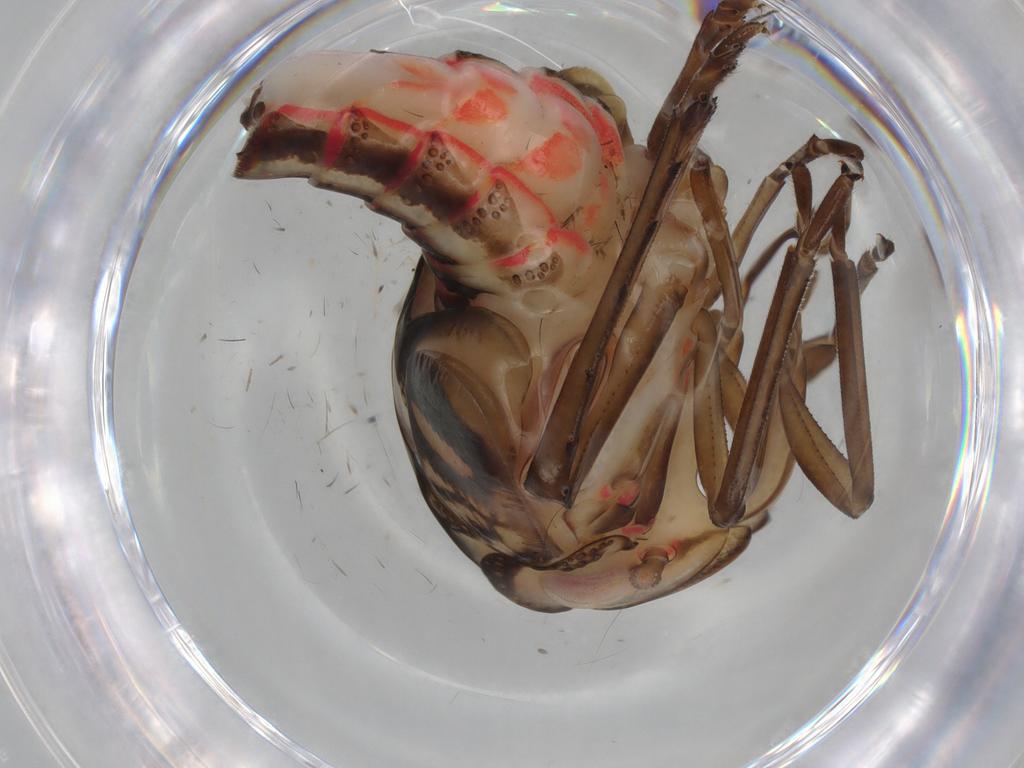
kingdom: Animalia
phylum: Arthropoda
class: Insecta
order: Hemiptera
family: Nogodinidae
